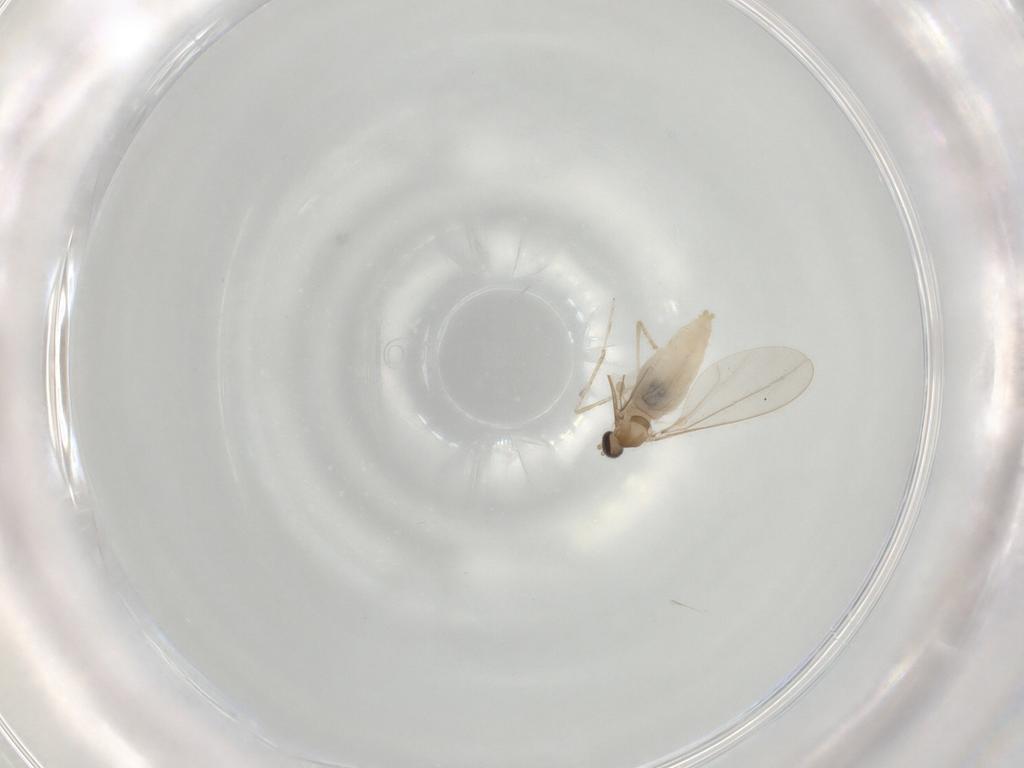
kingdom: Animalia
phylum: Arthropoda
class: Insecta
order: Diptera
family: Cecidomyiidae
